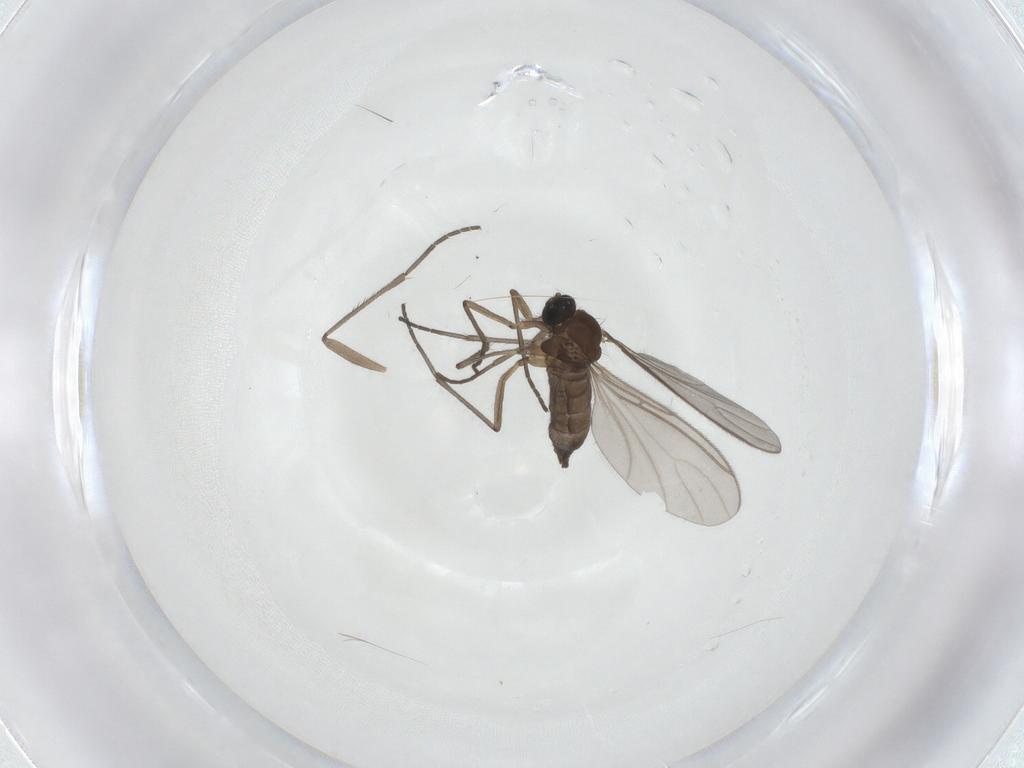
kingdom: Animalia
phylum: Arthropoda
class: Insecta
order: Diptera
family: Sciaridae
